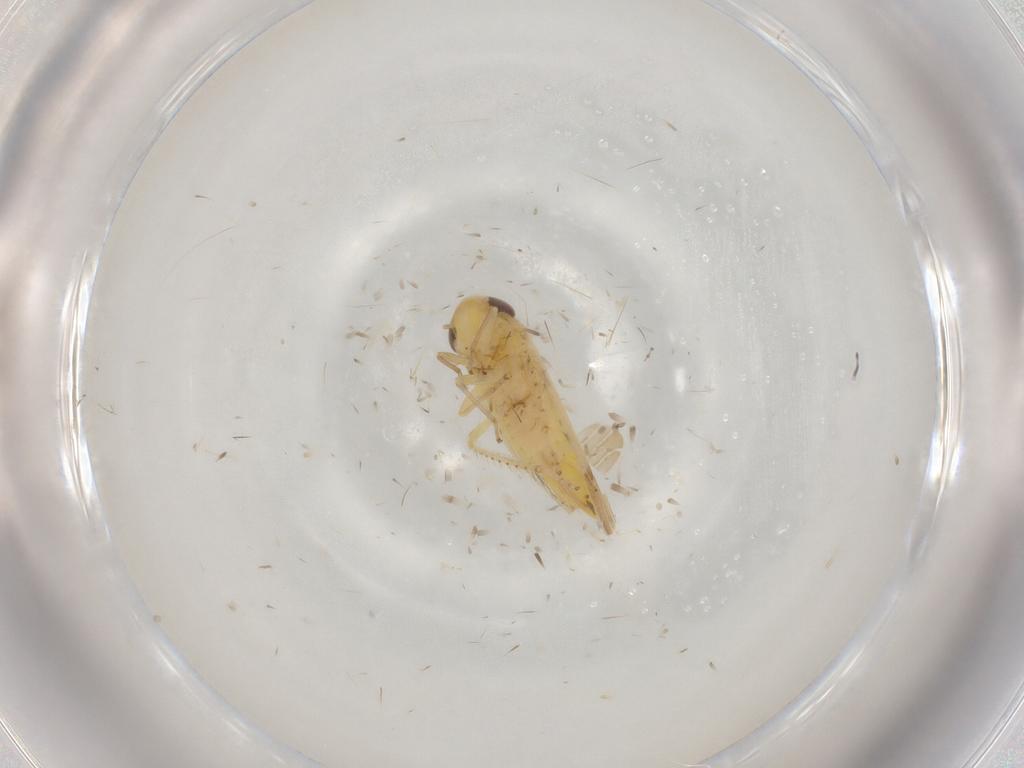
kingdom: Animalia
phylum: Arthropoda
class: Insecta
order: Hemiptera
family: Cicadellidae
